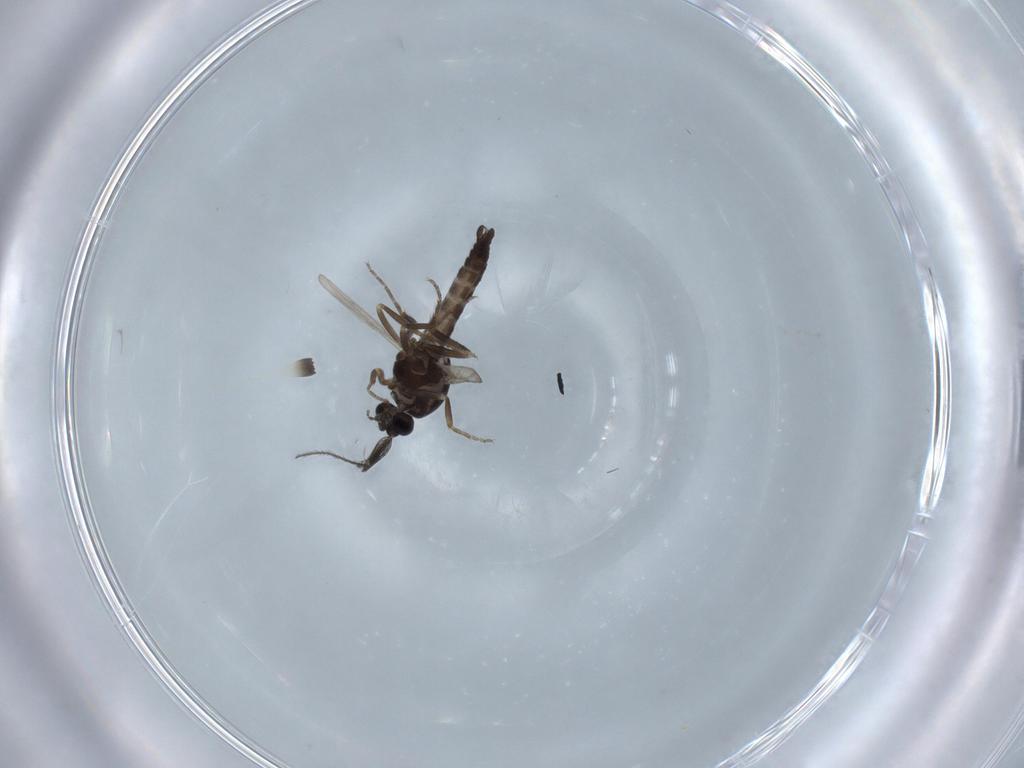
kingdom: Animalia
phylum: Arthropoda
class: Insecta
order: Diptera
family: Ceratopogonidae
